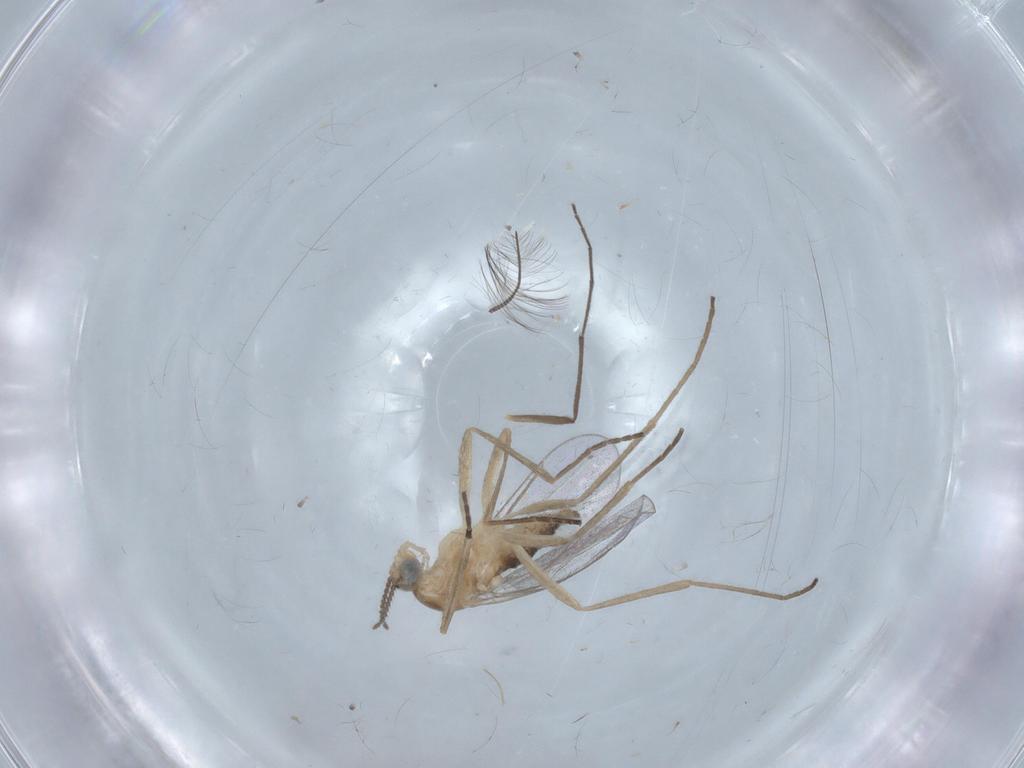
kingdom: Animalia
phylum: Arthropoda
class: Insecta
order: Diptera
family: Cecidomyiidae
